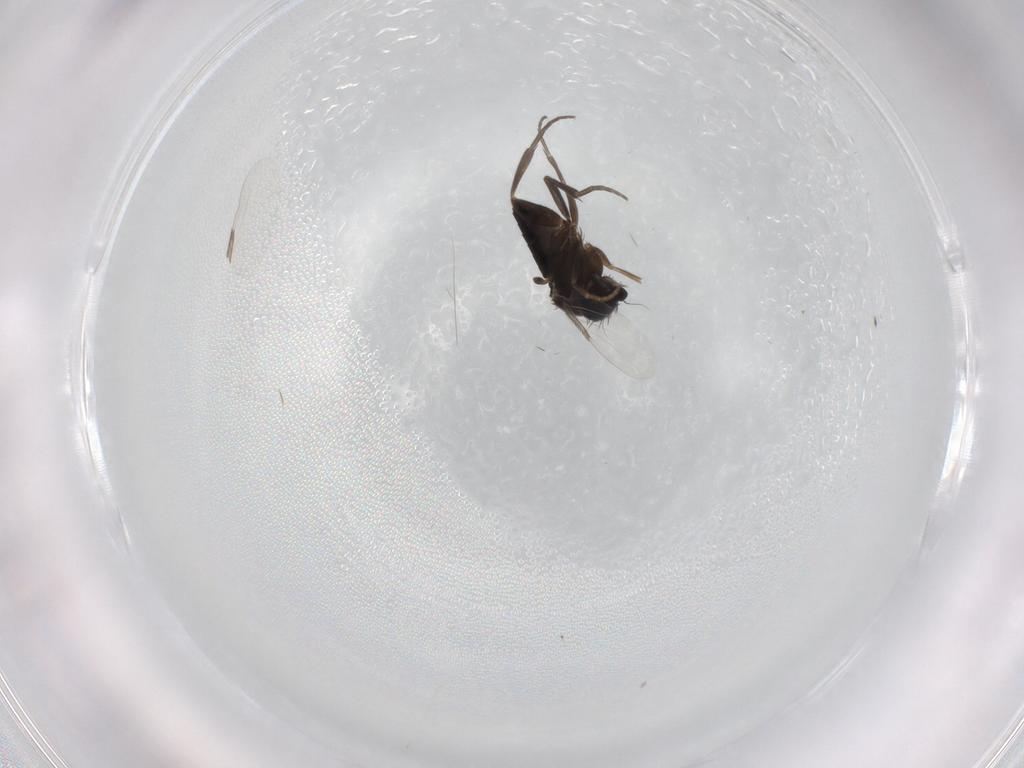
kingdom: Animalia
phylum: Arthropoda
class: Insecta
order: Diptera
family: Phoridae
